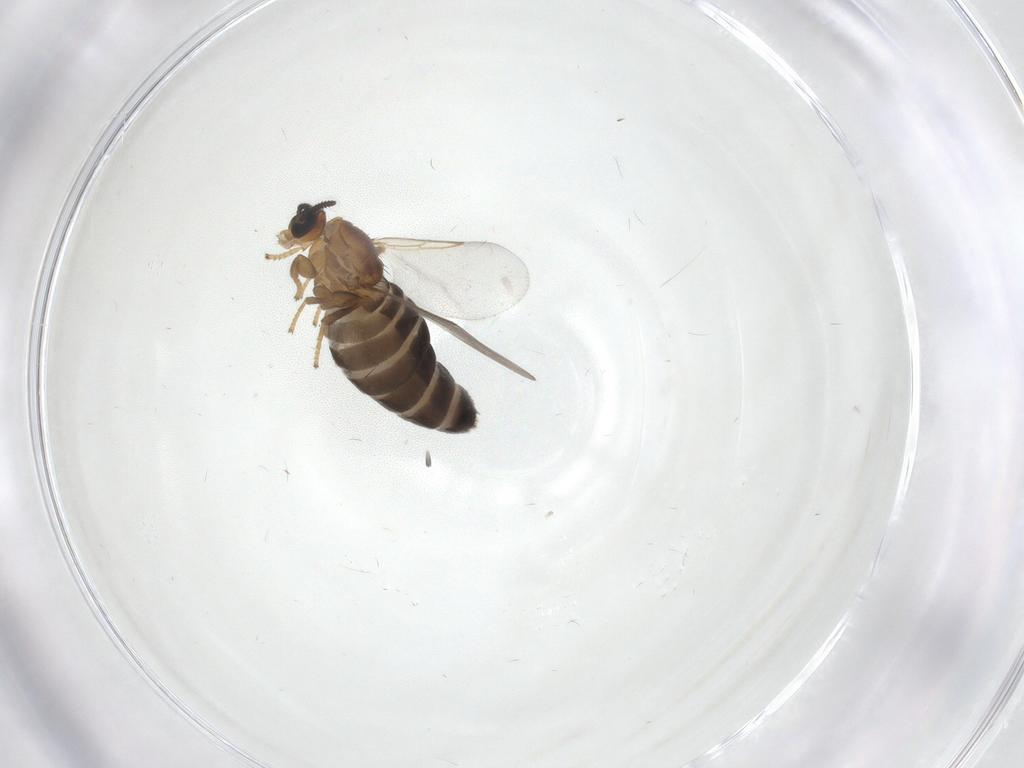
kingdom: Animalia
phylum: Arthropoda
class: Insecta
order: Diptera
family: Scatopsidae
